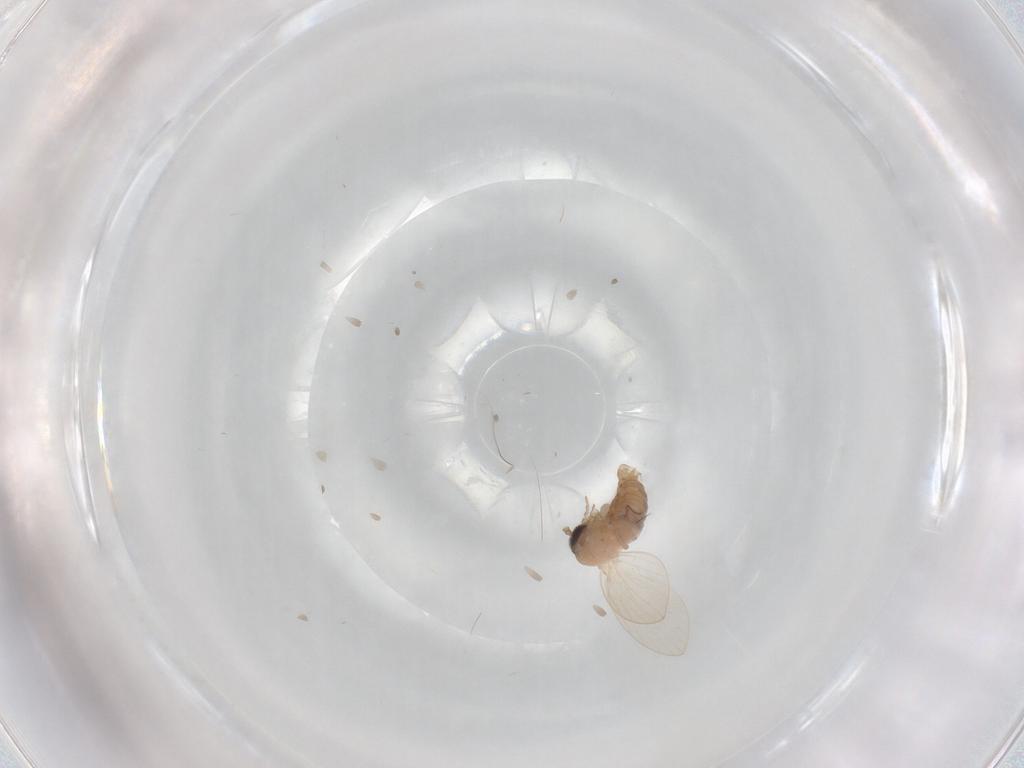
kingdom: Animalia
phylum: Arthropoda
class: Insecta
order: Diptera
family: Psychodidae
